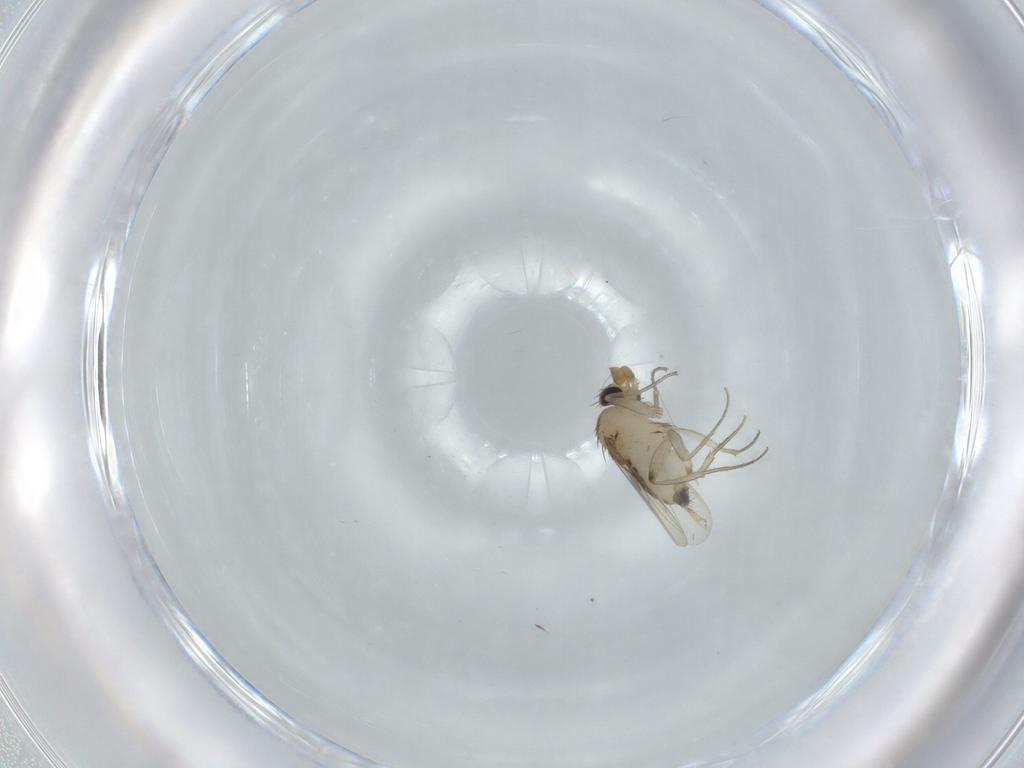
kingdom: Animalia
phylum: Arthropoda
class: Insecta
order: Diptera
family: Phoridae
